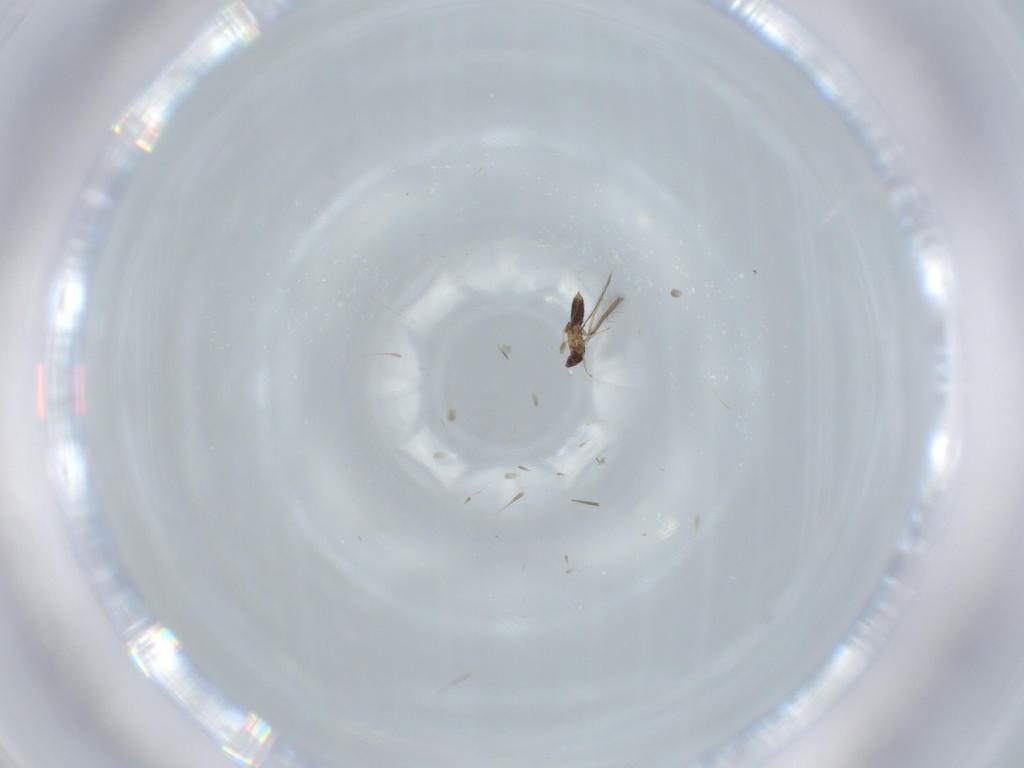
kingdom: Animalia
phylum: Arthropoda
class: Insecta
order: Hymenoptera
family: Mymaridae
